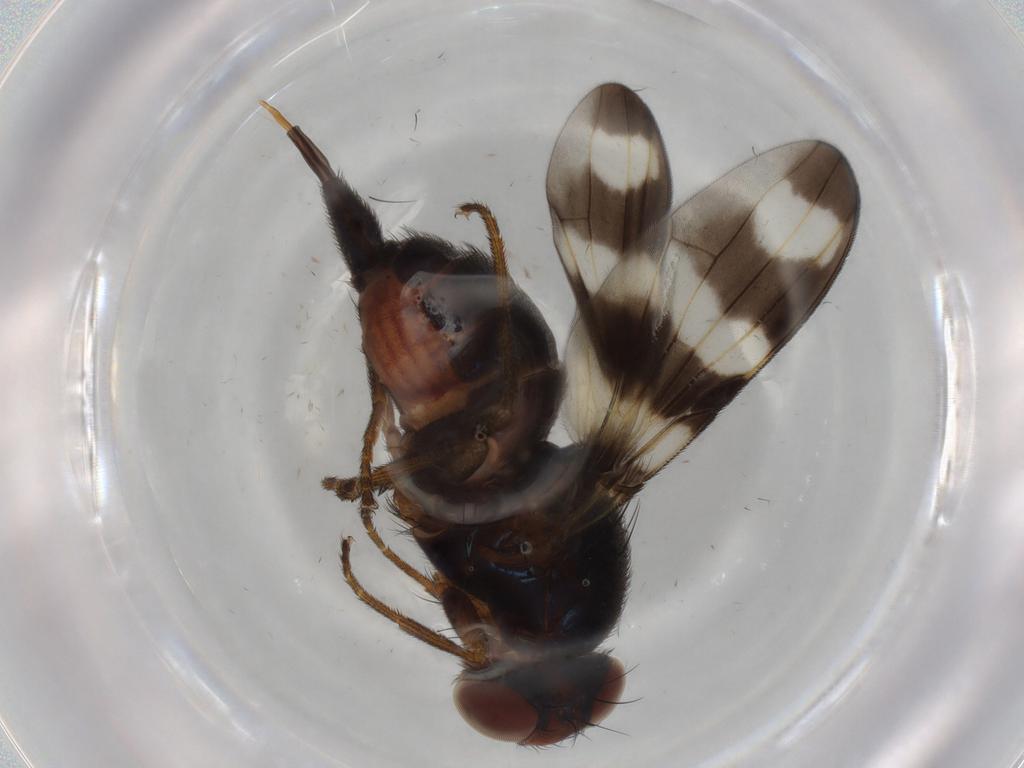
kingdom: Animalia
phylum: Arthropoda
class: Insecta
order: Diptera
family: Ulidiidae
